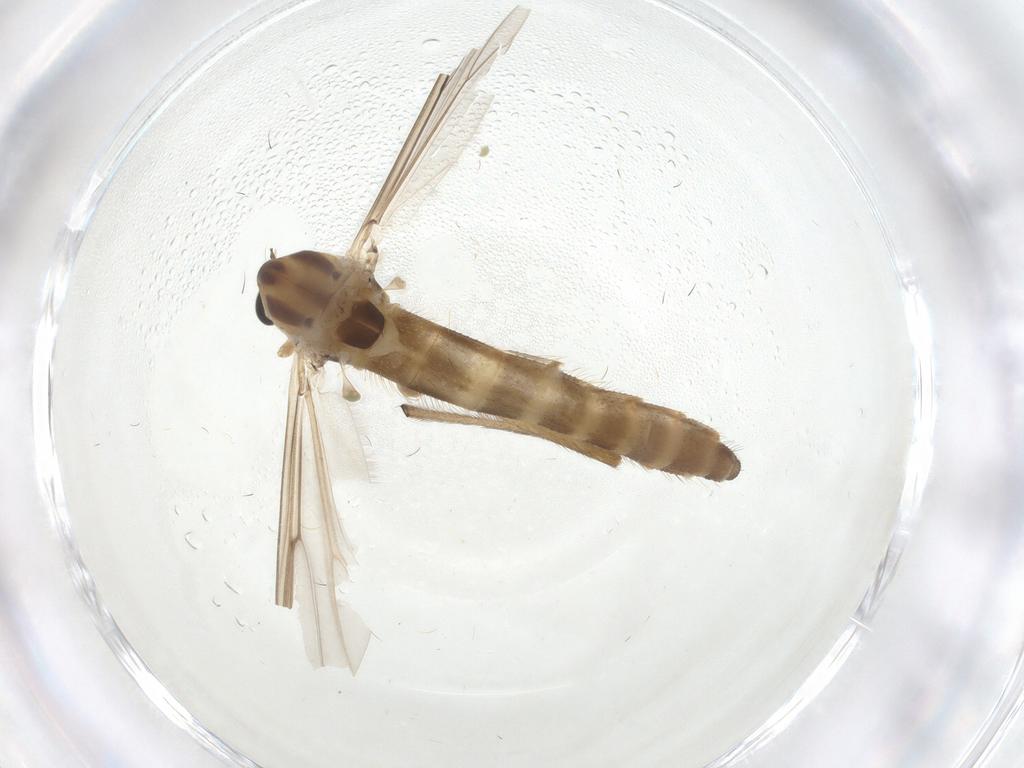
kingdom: Animalia
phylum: Arthropoda
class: Insecta
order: Diptera
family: Chironomidae
